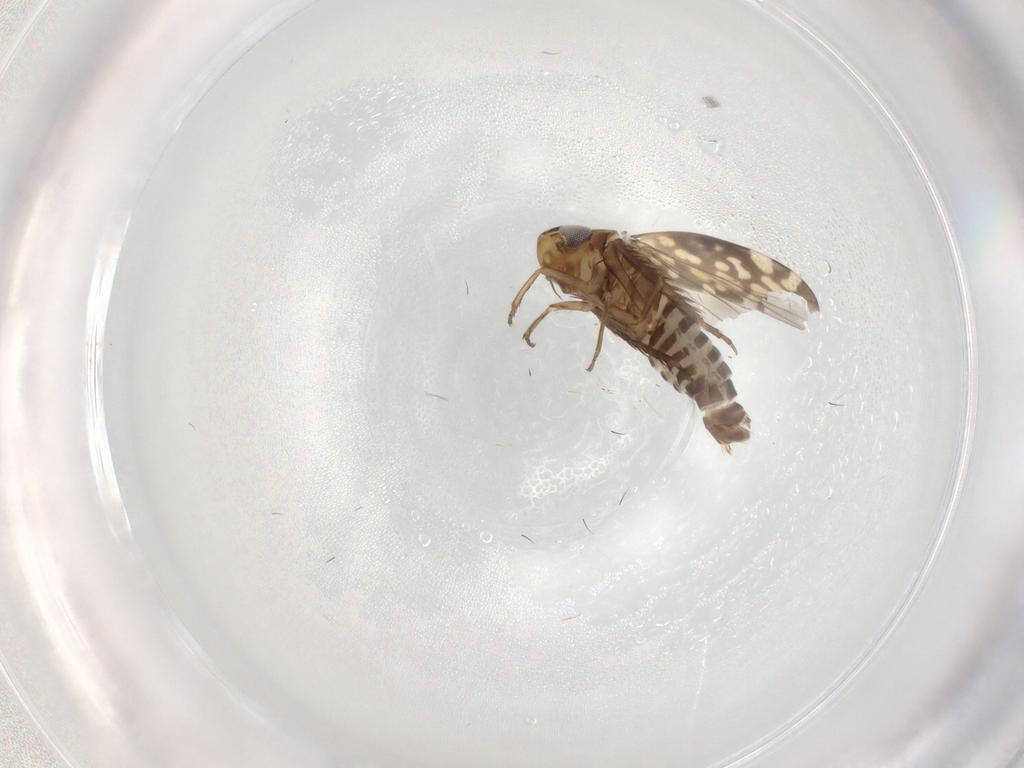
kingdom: Animalia
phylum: Arthropoda
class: Insecta
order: Hemiptera
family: Cicadellidae
